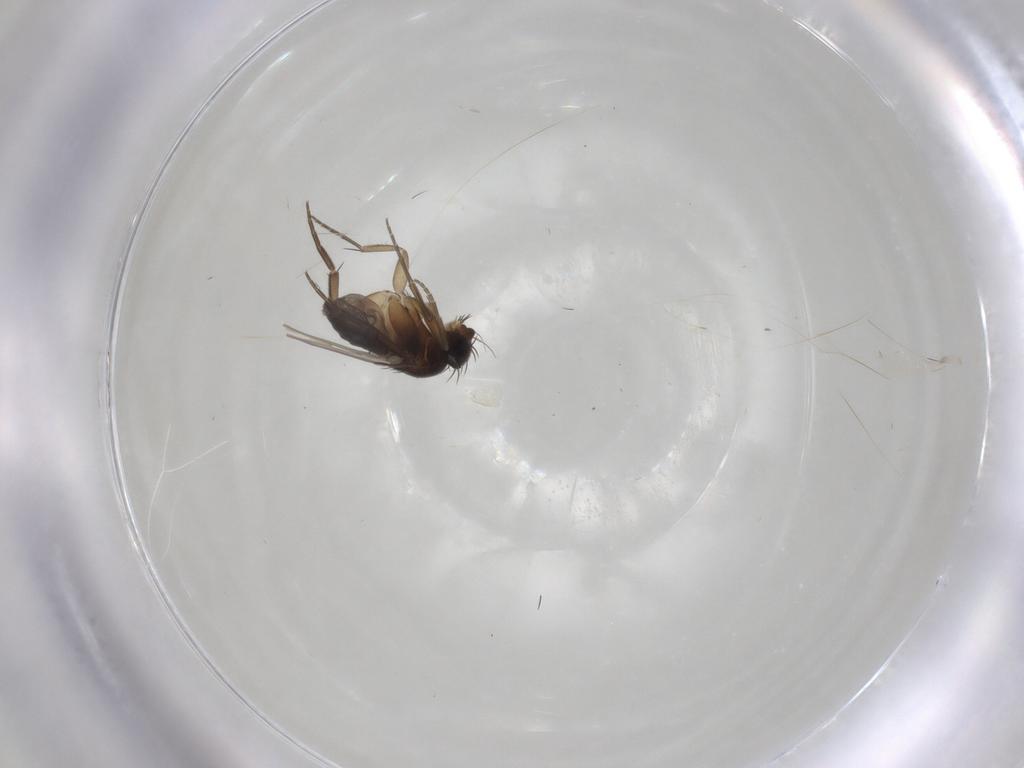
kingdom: Animalia
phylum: Arthropoda
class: Insecta
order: Diptera
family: Phoridae
